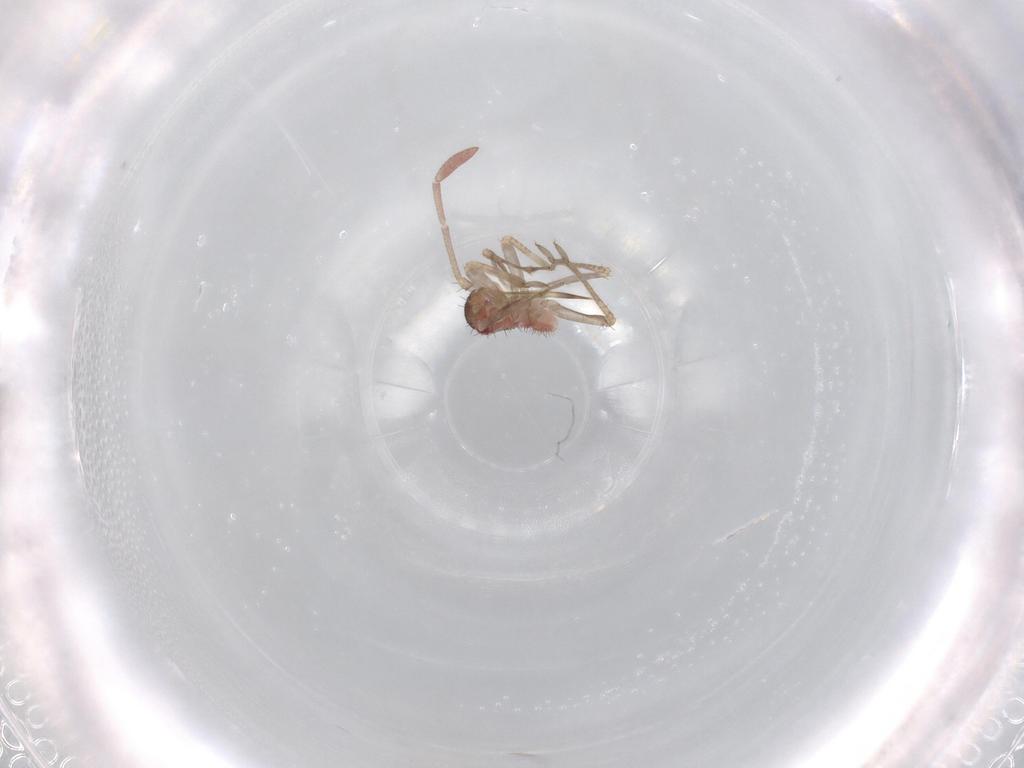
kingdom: Animalia
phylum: Arthropoda
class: Insecta
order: Hemiptera
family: Miridae
